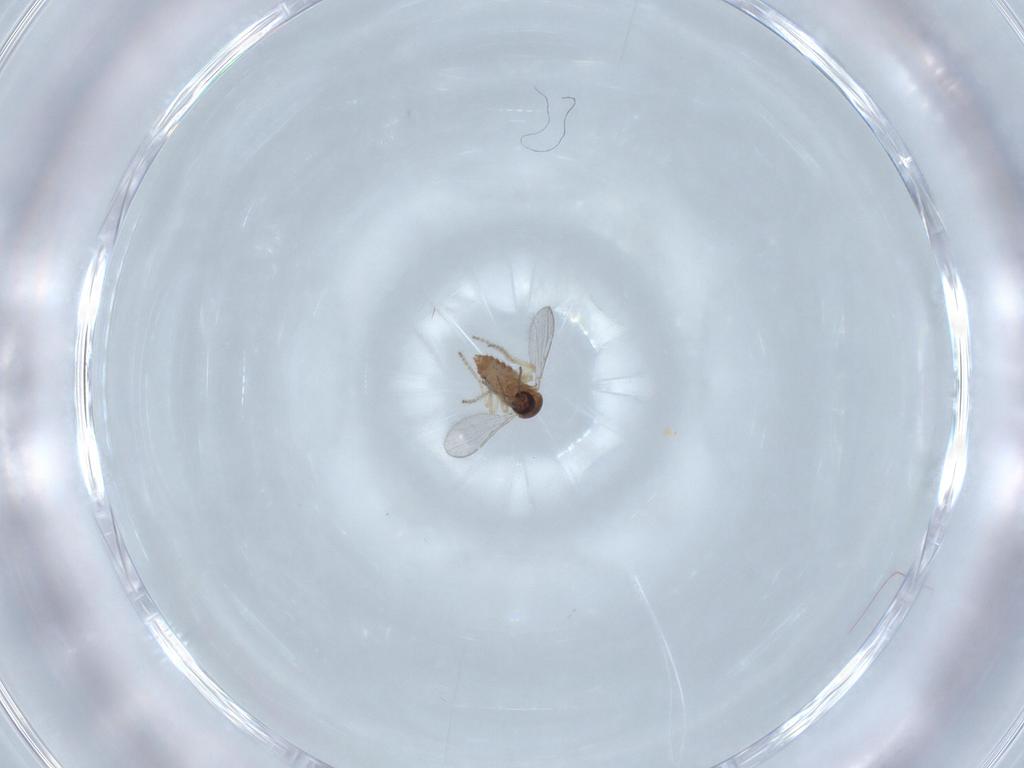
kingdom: Animalia
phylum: Arthropoda
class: Insecta
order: Diptera
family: Ceratopogonidae
